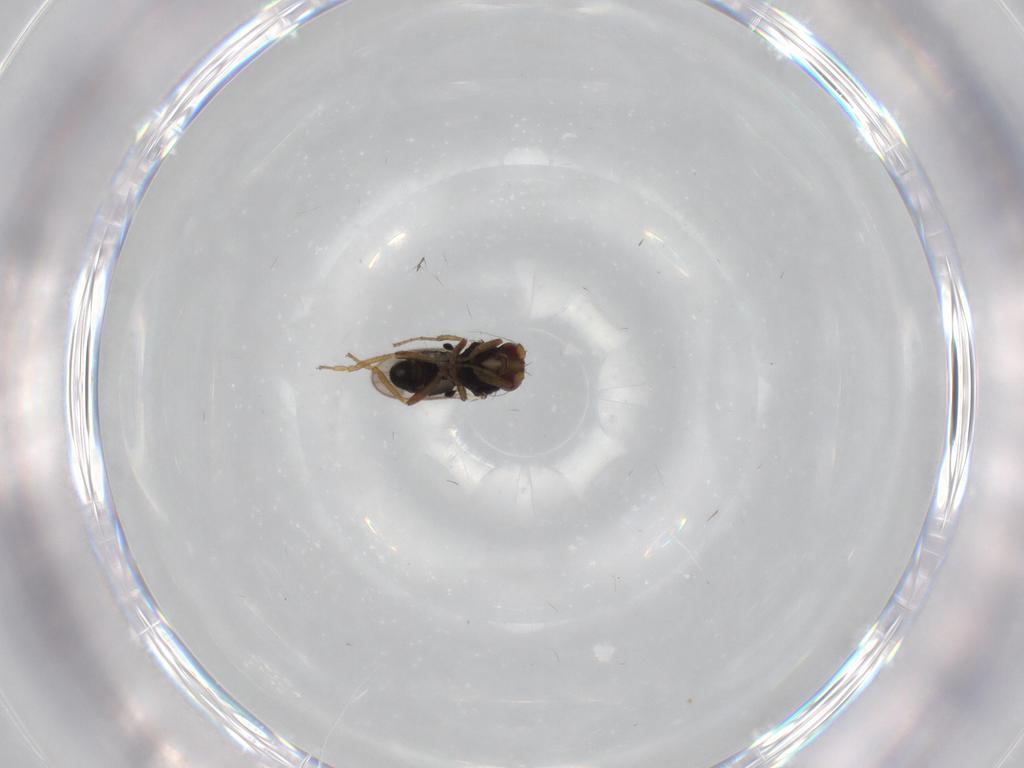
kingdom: Animalia
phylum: Arthropoda
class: Insecta
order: Diptera
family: Sphaeroceridae
